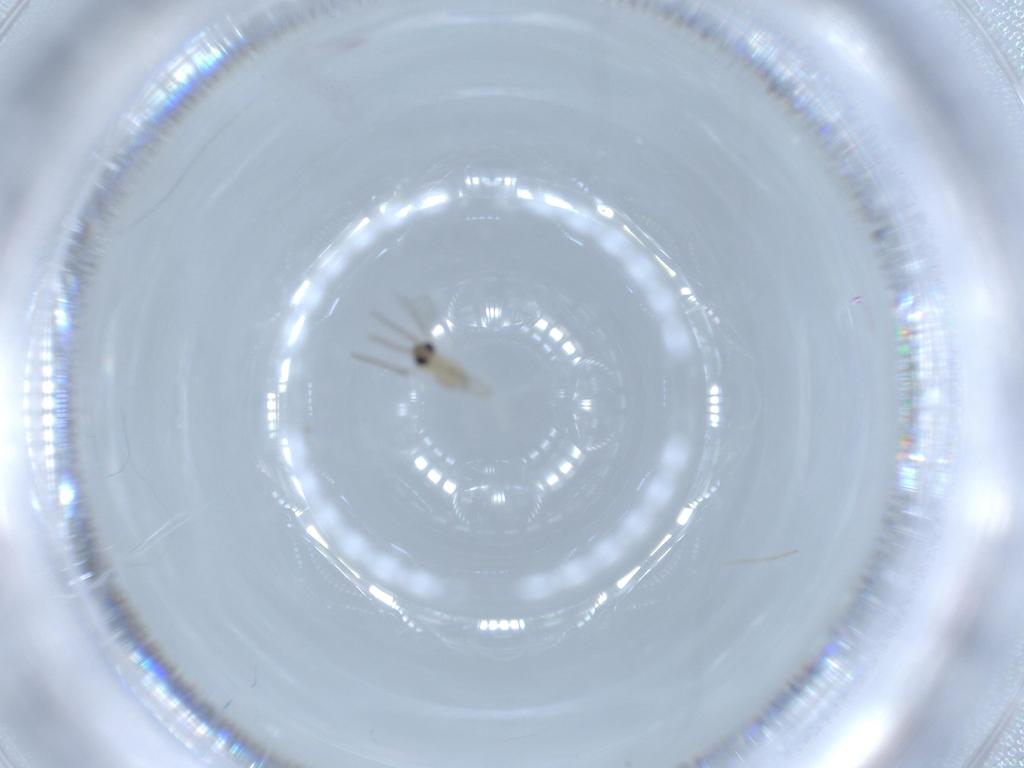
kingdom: Animalia
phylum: Arthropoda
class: Insecta
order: Diptera
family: Cecidomyiidae
